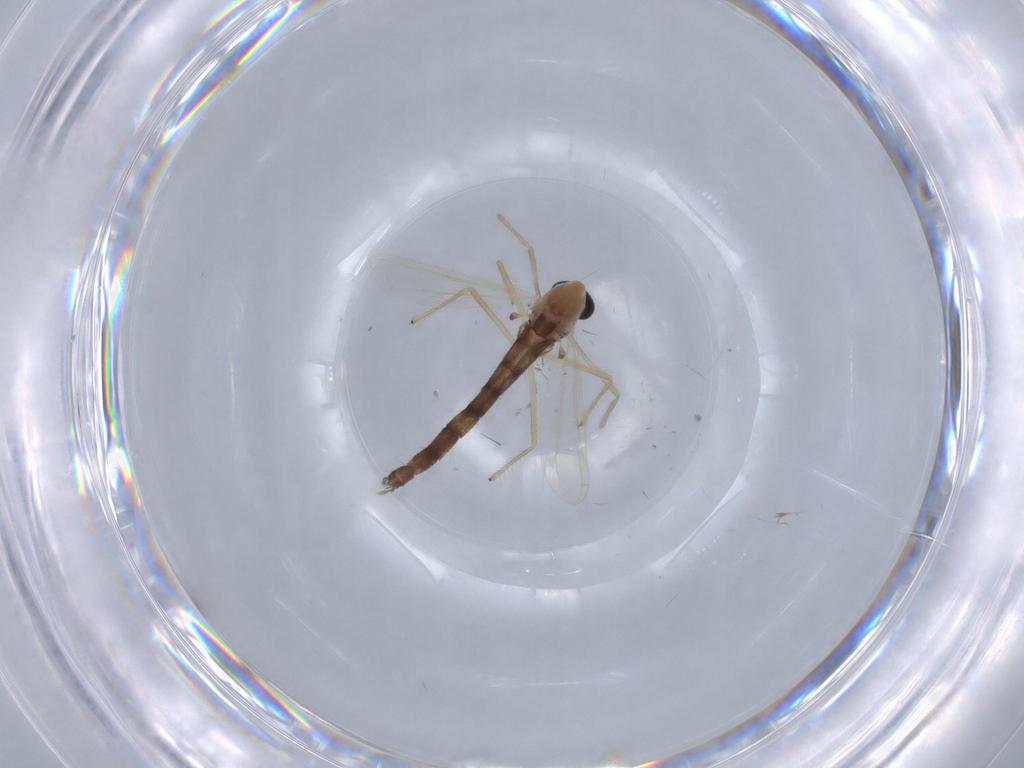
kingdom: Animalia
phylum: Arthropoda
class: Insecta
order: Diptera
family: Chironomidae
